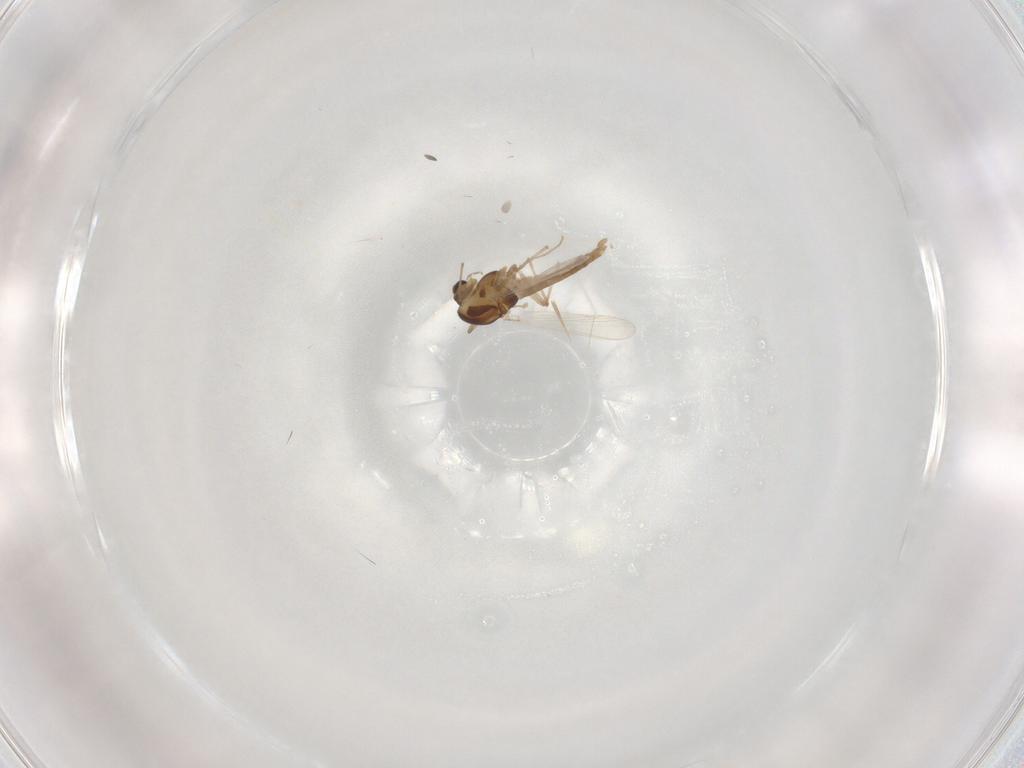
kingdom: Animalia
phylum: Arthropoda
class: Insecta
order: Diptera
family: Chironomidae
